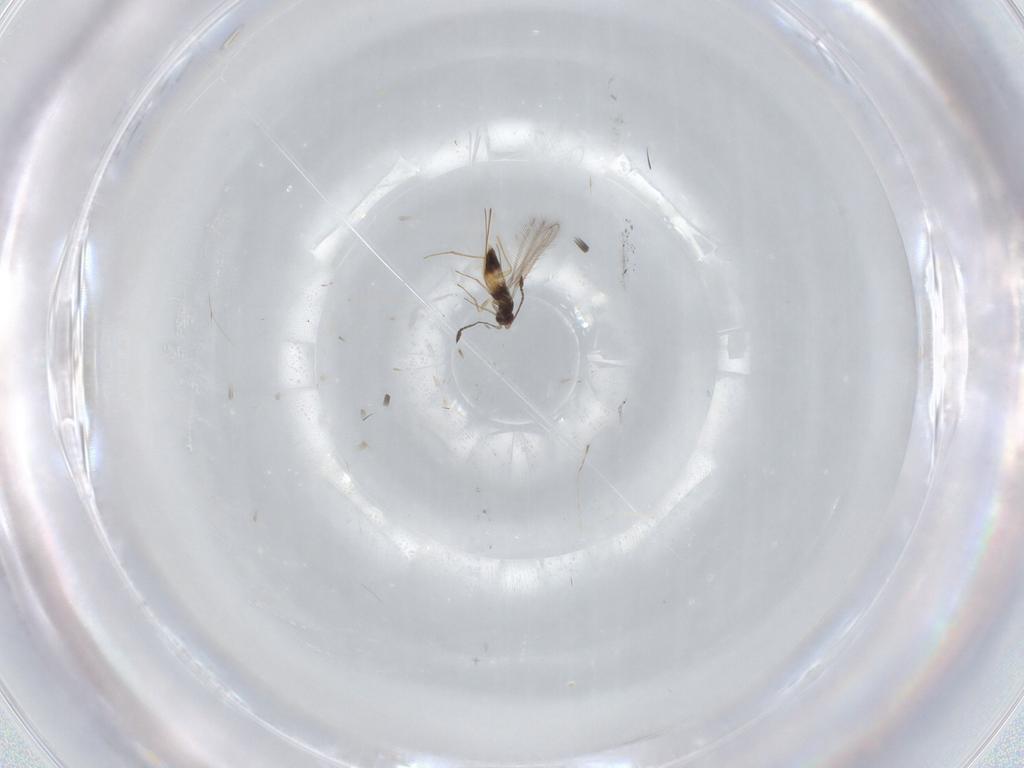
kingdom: Animalia
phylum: Arthropoda
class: Insecta
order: Hymenoptera
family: Mymaridae
